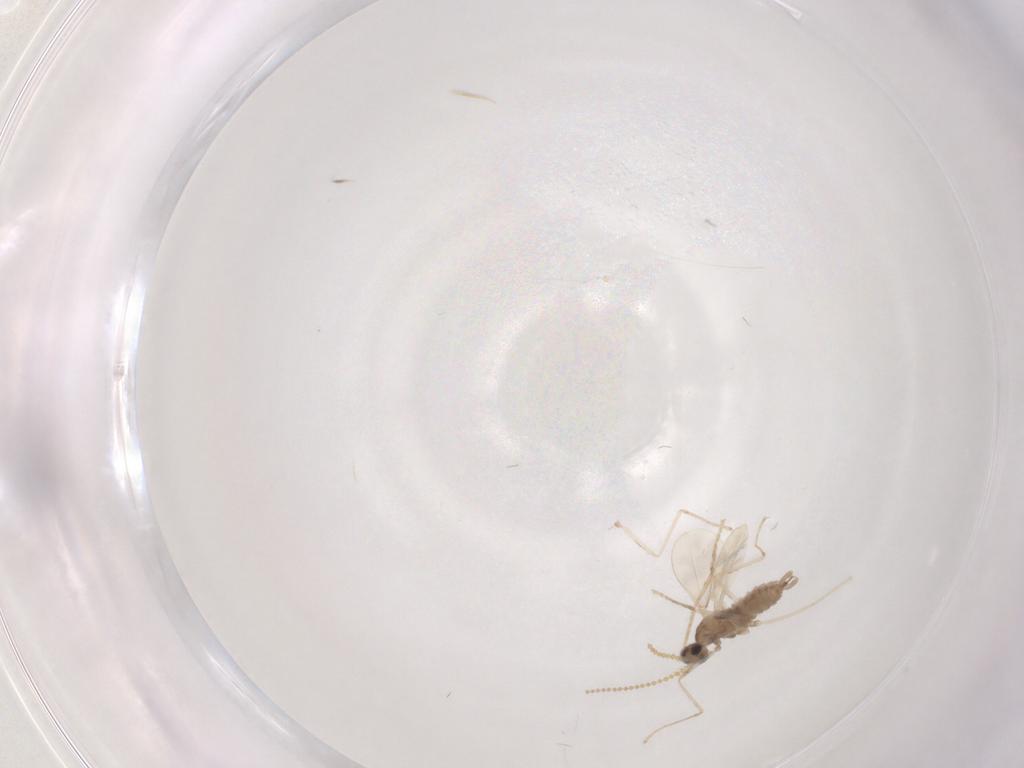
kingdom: Animalia
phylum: Arthropoda
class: Insecta
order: Diptera
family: Cecidomyiidae
